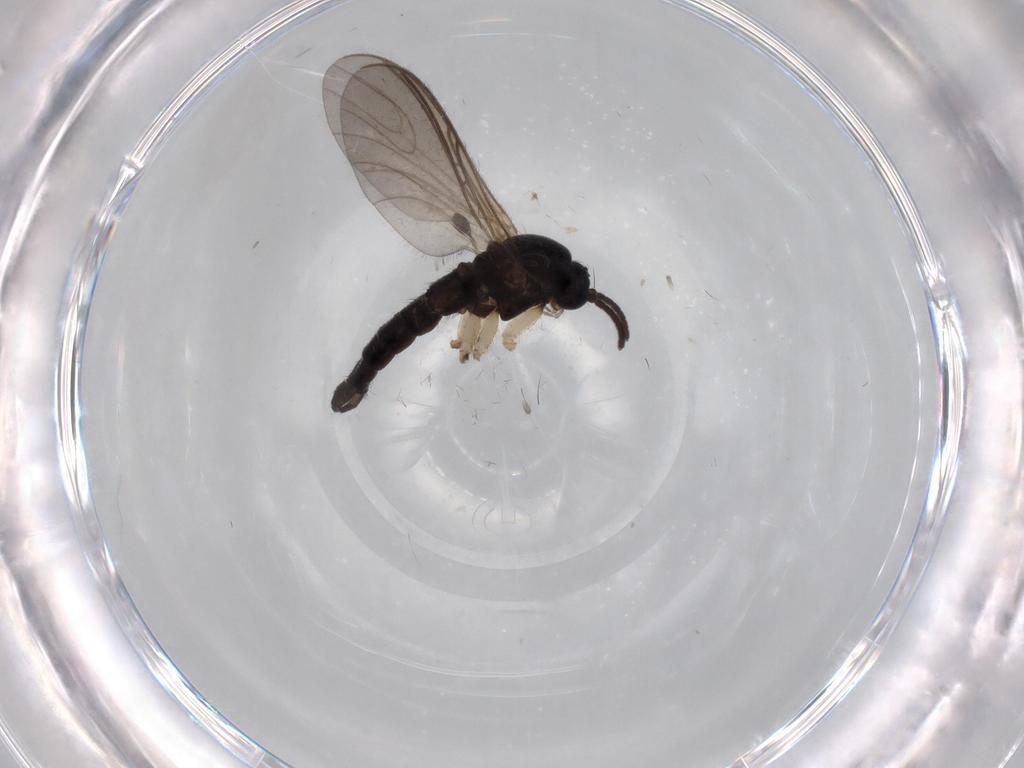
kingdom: Animalia
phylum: Arthropoda
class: Insecta
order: Diptera
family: Sciaridae
